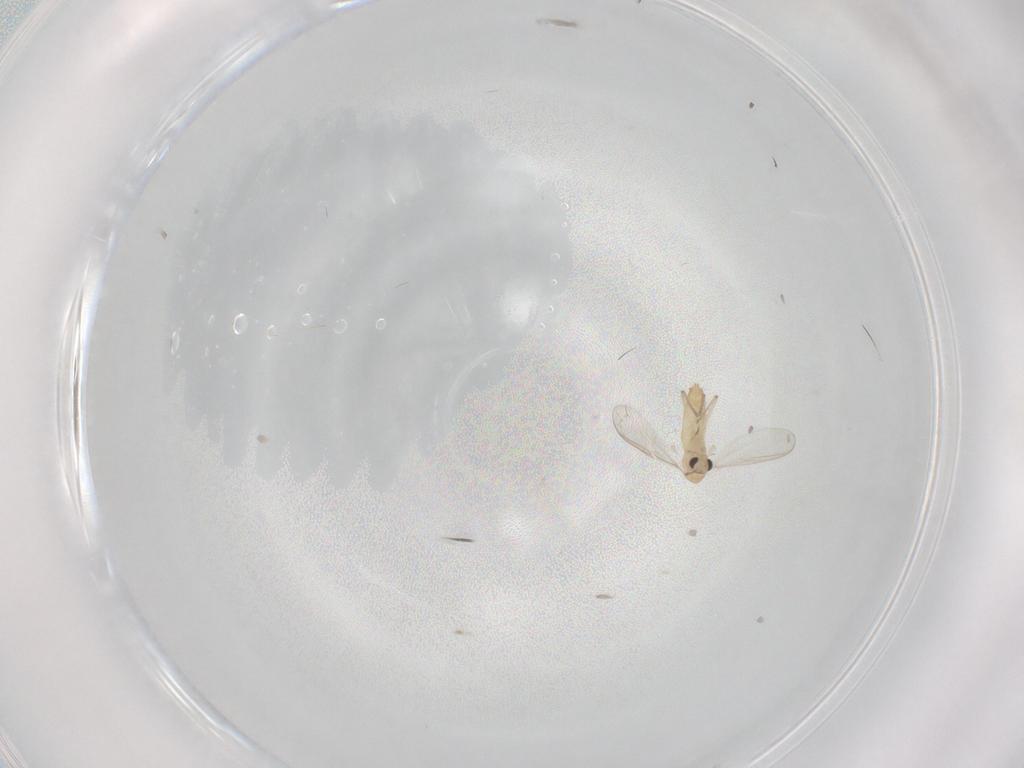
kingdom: Animalia
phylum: Arthropoda
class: Insecta
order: Diptera
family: Chironomidae
